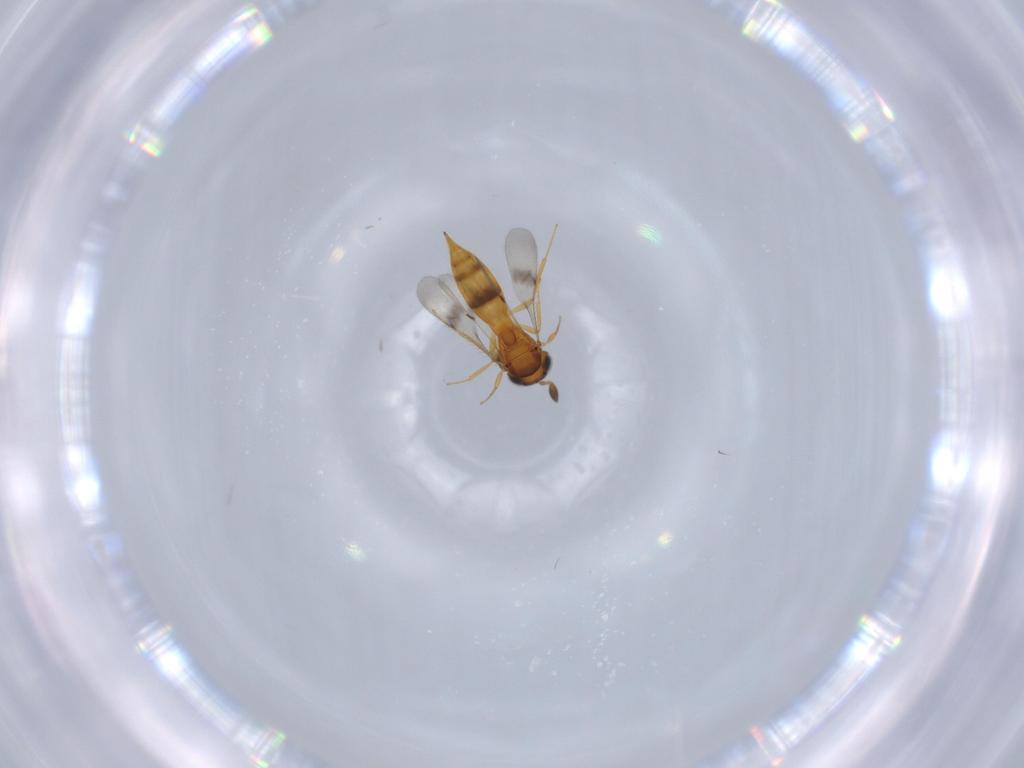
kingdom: Animalia
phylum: Arthropoda
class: Insecta
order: Hymenoptera
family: Scelionidae
